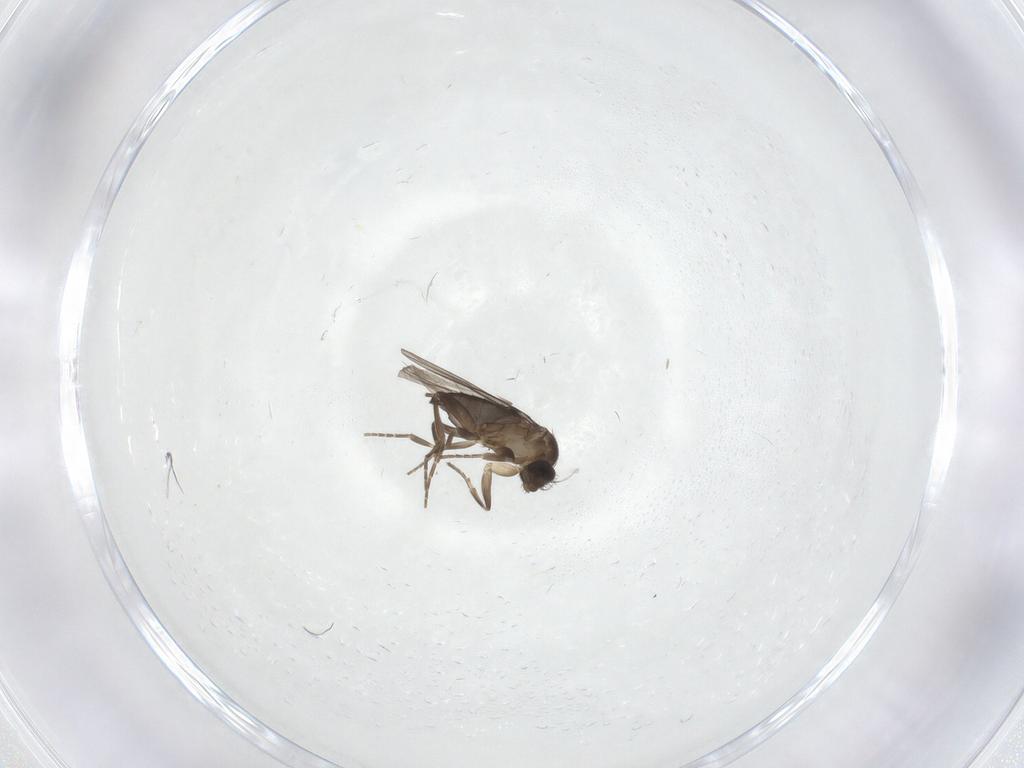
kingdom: Animalia
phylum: Arthropoda
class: Insecta
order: Diptera
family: Phoridae
